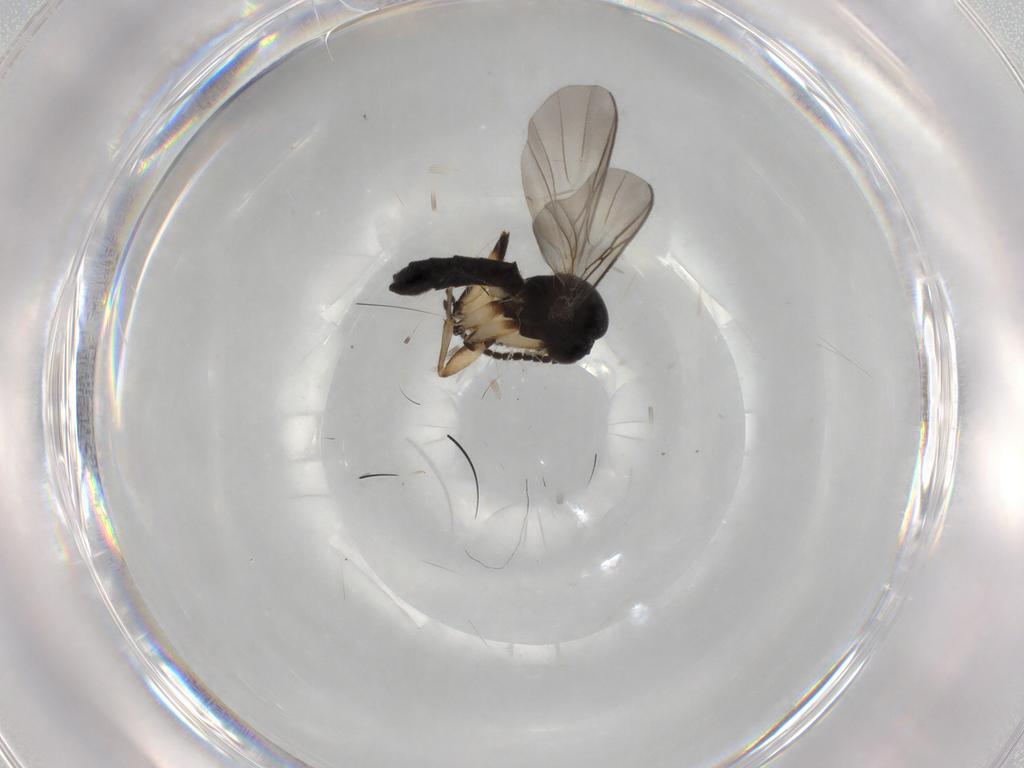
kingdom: Animalia
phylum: Arthropoda
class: Insecta
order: Diptera
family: Mycetophilidae
